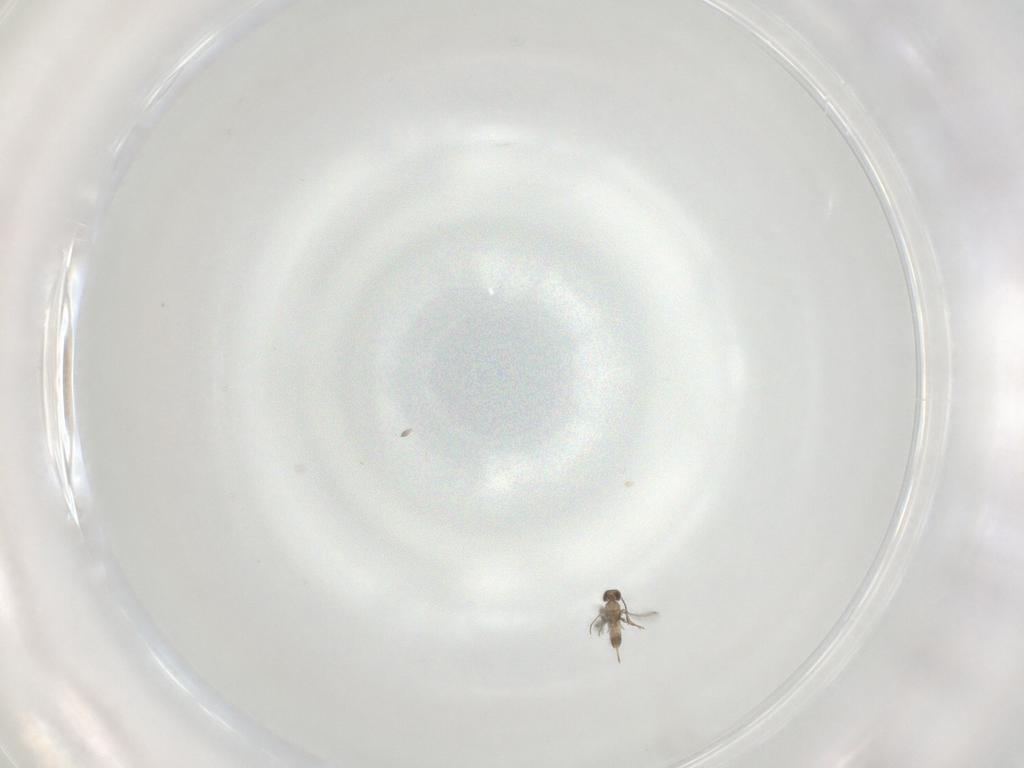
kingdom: Animalia
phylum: Arthropoda
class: Insecta
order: Hymenoptera
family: Mymaridae
